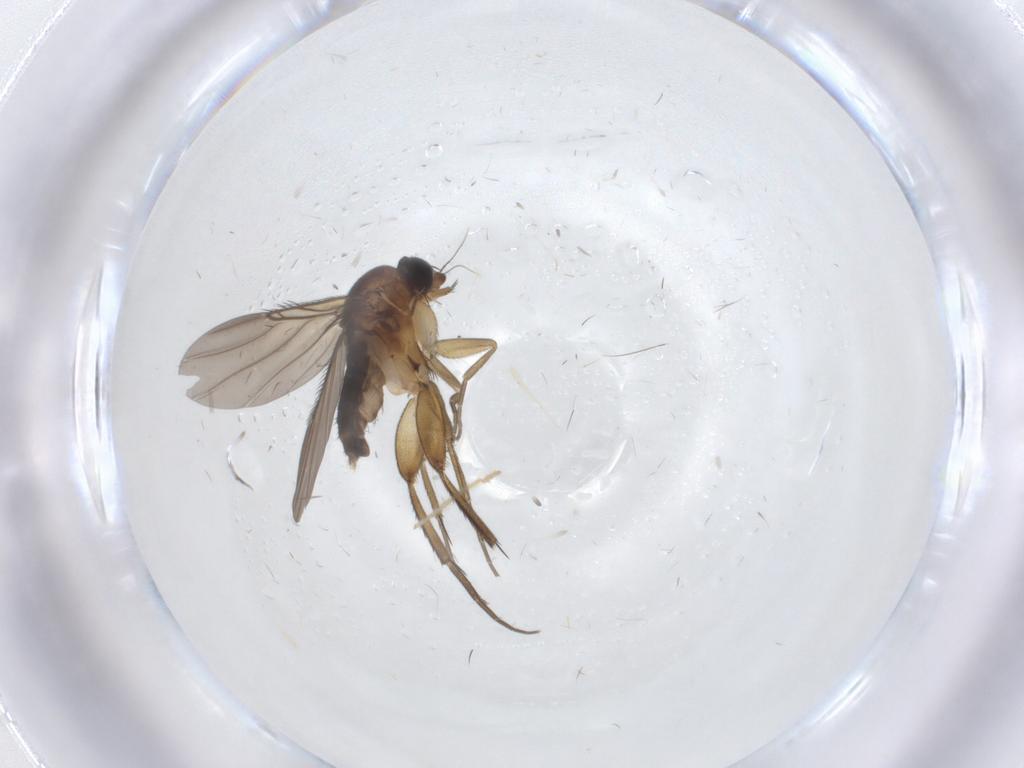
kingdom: Animalia
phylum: Arthropoda
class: Insecta
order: Diptera
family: Phoridae
